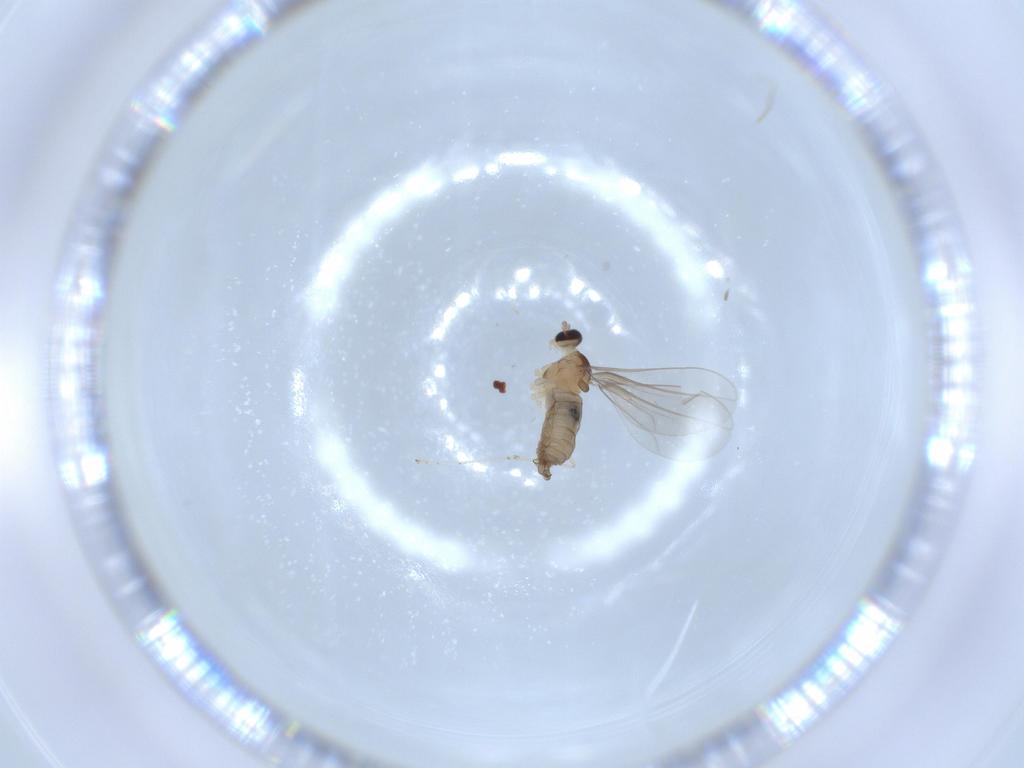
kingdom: Animalia
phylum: Arthropoda
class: Insecta
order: Diptera
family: Cecidomyiidae
